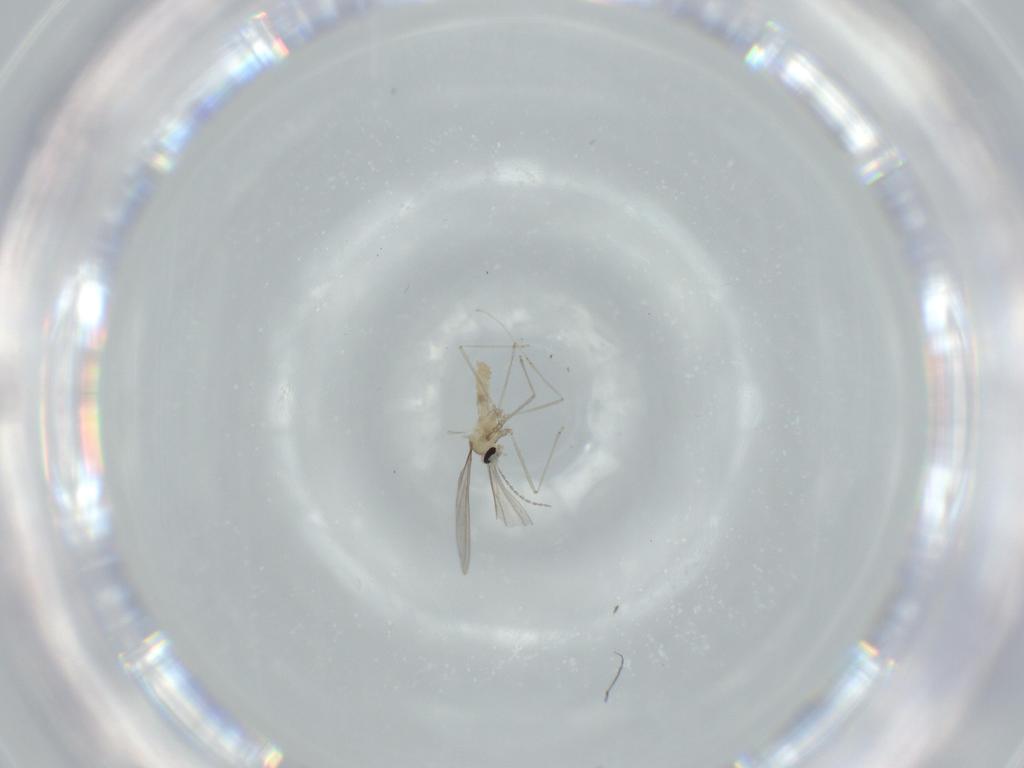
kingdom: Animalia
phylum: Arthropoda
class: Insecta
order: Diptera
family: Cecidomyiidae
